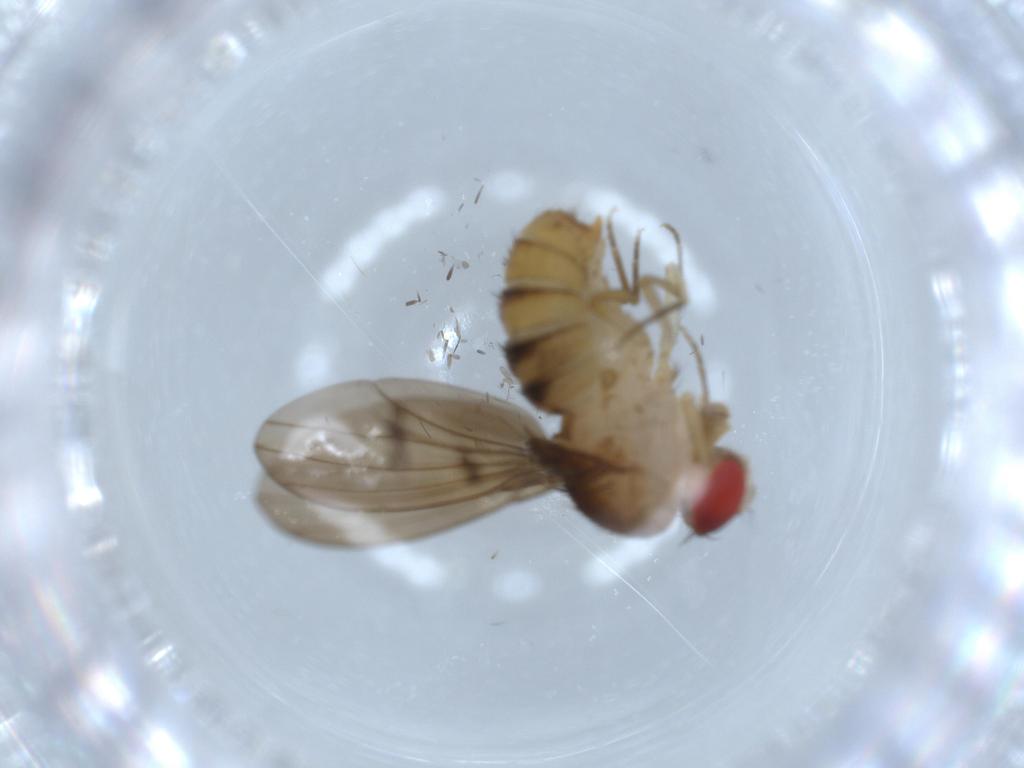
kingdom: Animalia
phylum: Arthropoda
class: Insecta
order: Diptera
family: Drosophilidae
